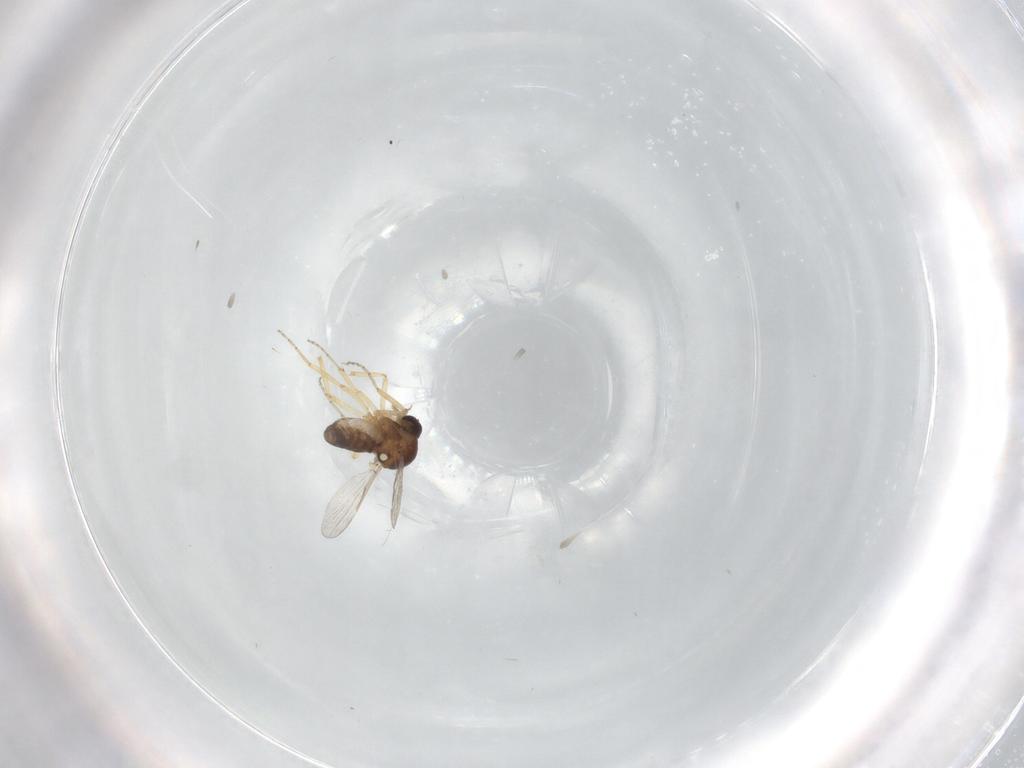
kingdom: Animalia
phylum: Arthropoda
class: Insecta
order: Diptera
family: Ceratopogonidae
